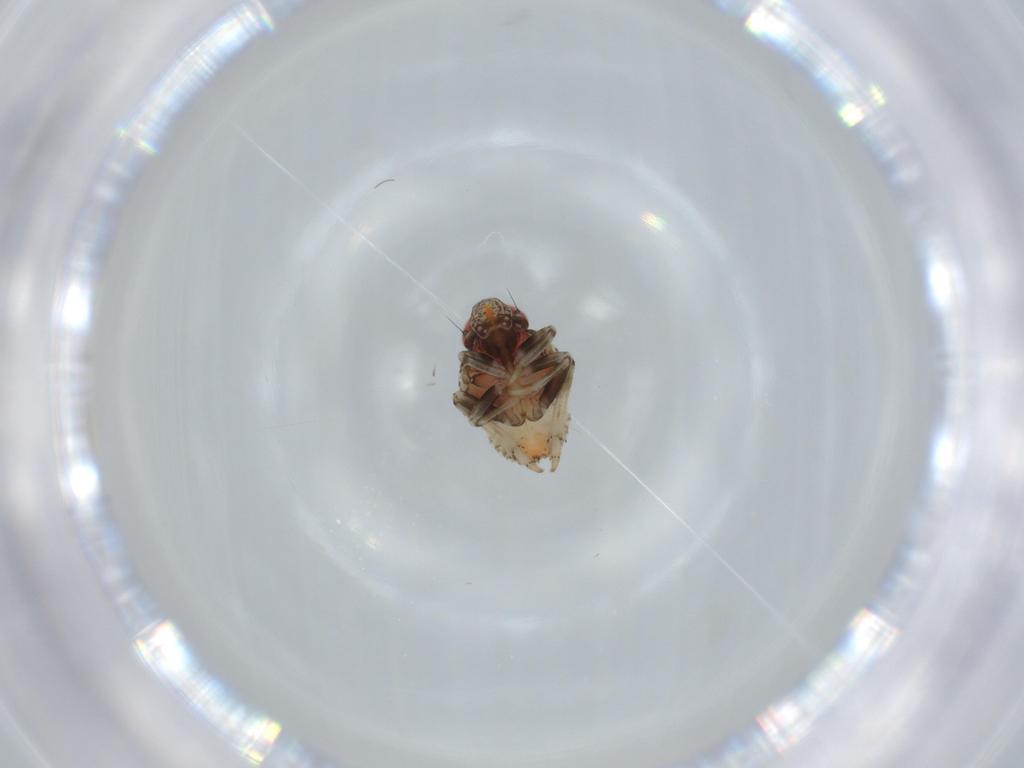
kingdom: Animalia
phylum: Arthropoda
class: Insecta
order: Hemiptera
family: Issidae
